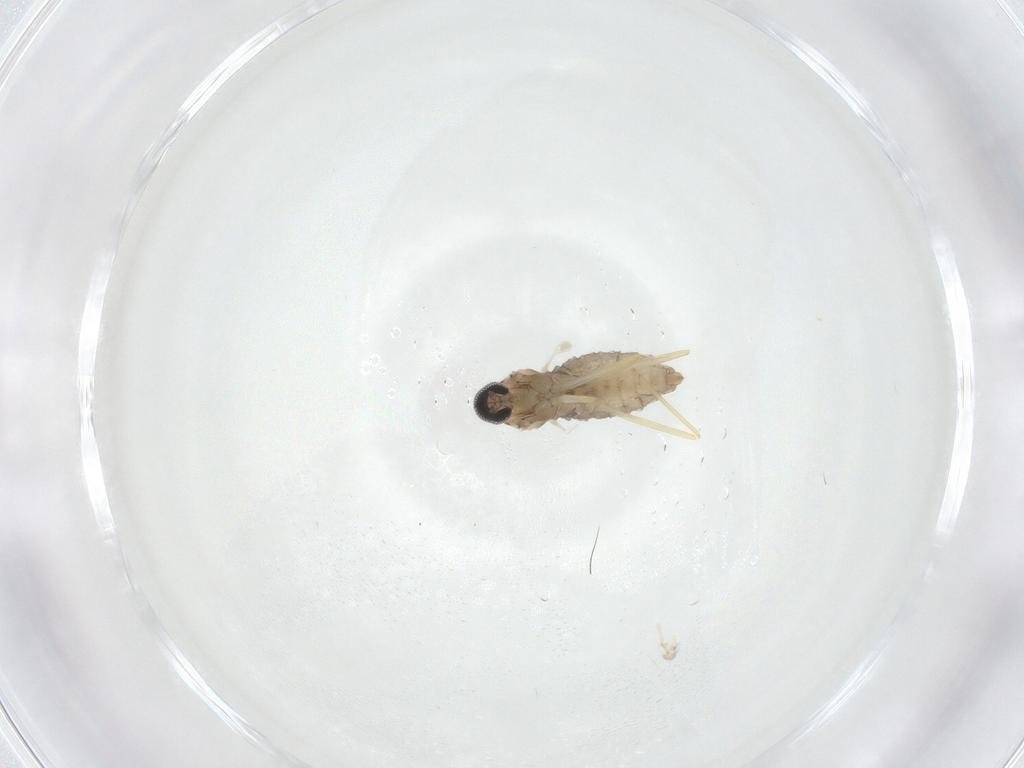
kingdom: Animalia
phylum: Arthropoda
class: Insecta
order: Diptera
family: Cecidomyiidae
